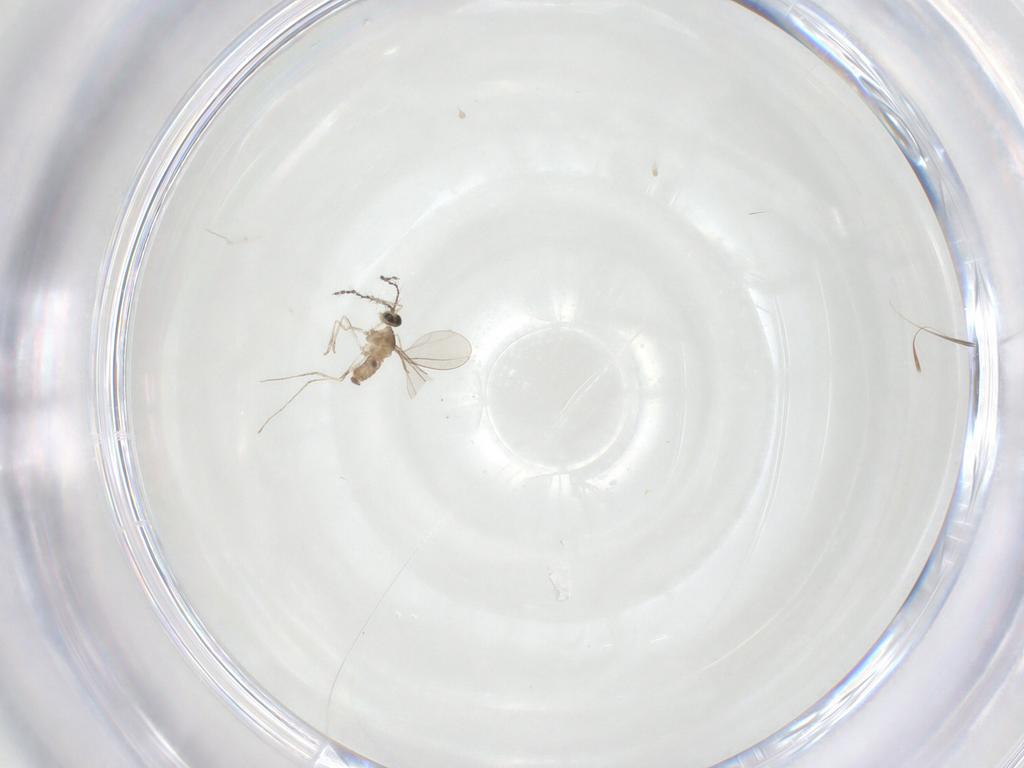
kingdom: Animalia
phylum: Arthropoda
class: Insecta
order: Diptera
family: Cecidomyiidae
